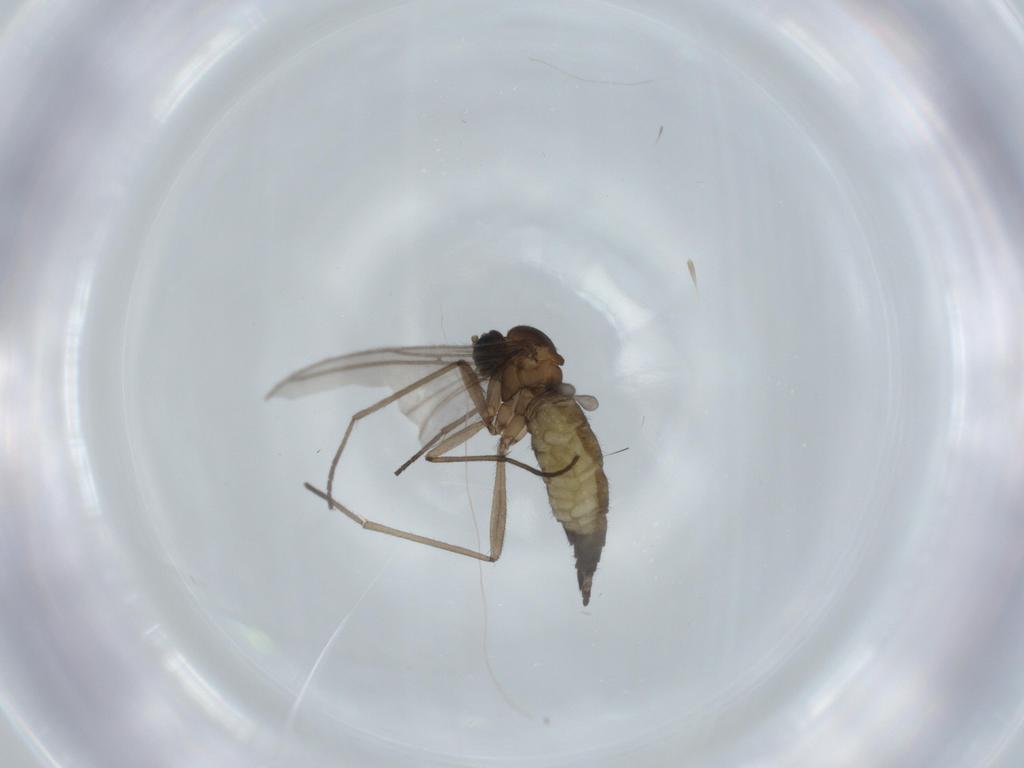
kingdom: Animalia
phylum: Arthropoda
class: Insecta
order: Diptera
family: Sciaridae
